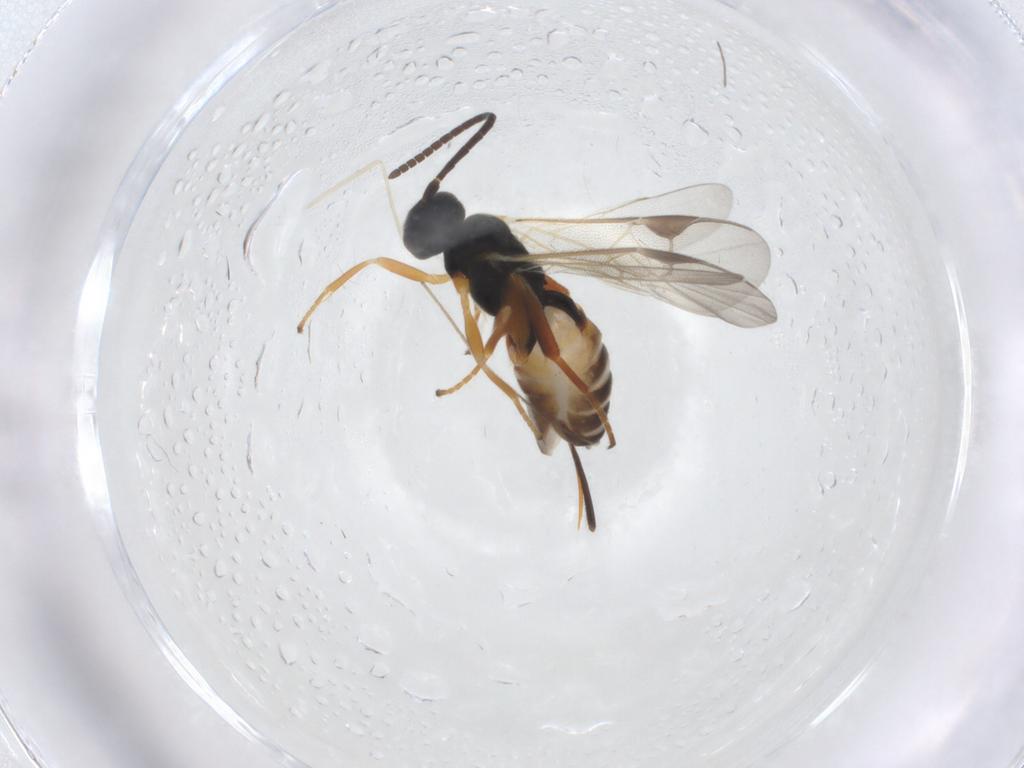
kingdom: Animalia
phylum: Arthropoda
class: Insecta
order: Hymenoptera
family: Braconidae
